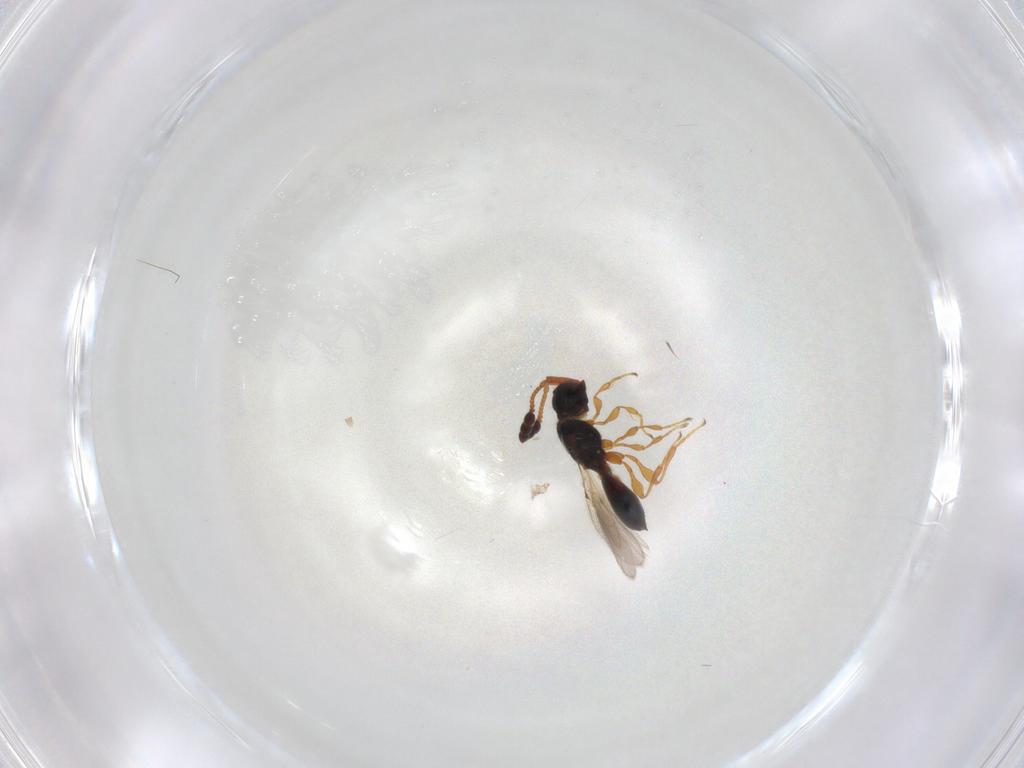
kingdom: Animalia
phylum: Arthropoda
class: Insecta
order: Hymenoptera
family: Diapriidae
